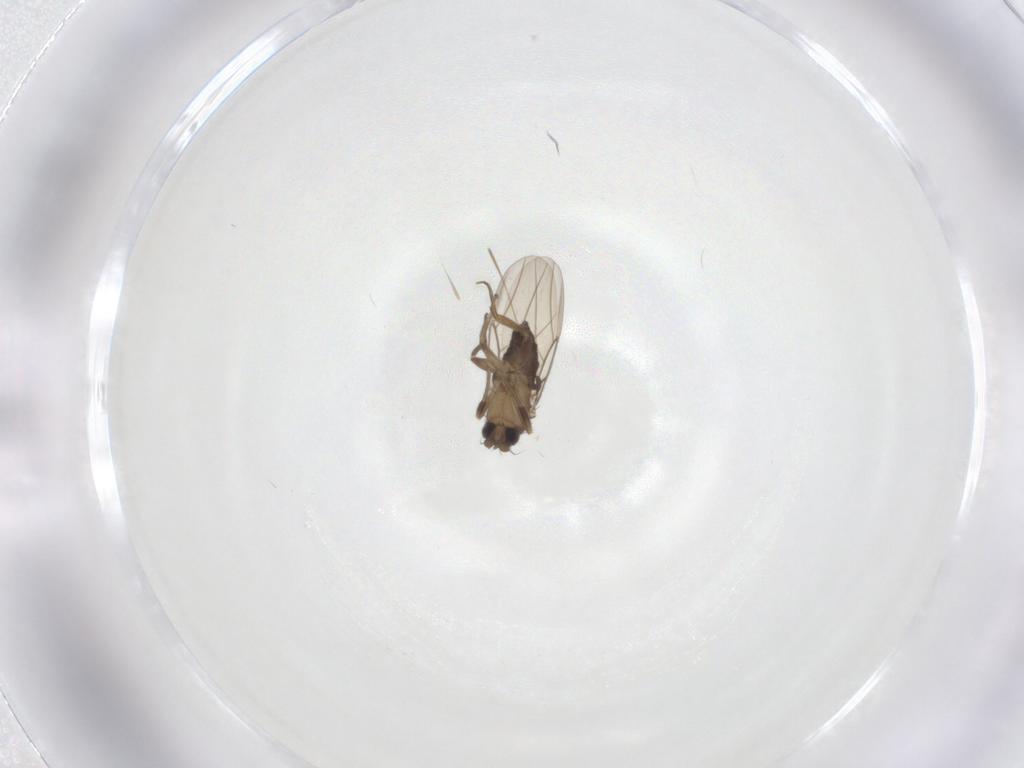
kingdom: Animalia
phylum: Arthropoda
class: Insecta
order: Diptera
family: Phoridae
